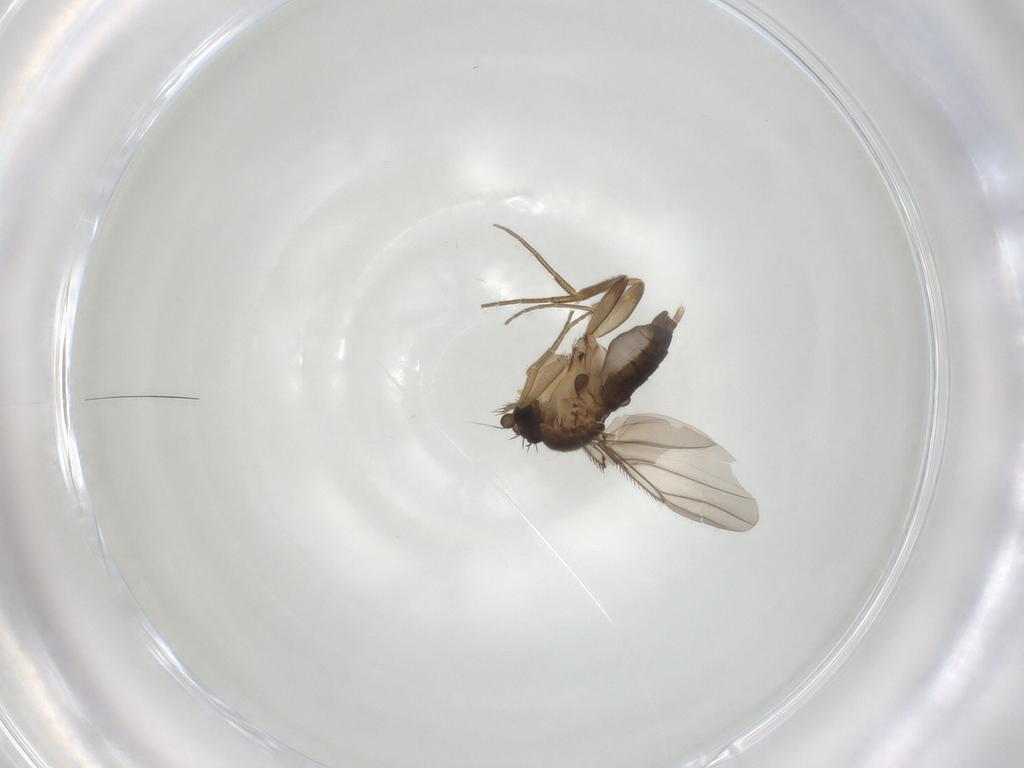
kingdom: Animalia
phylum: Arthropoda
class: Insecta
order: Diptera
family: Phoridae
